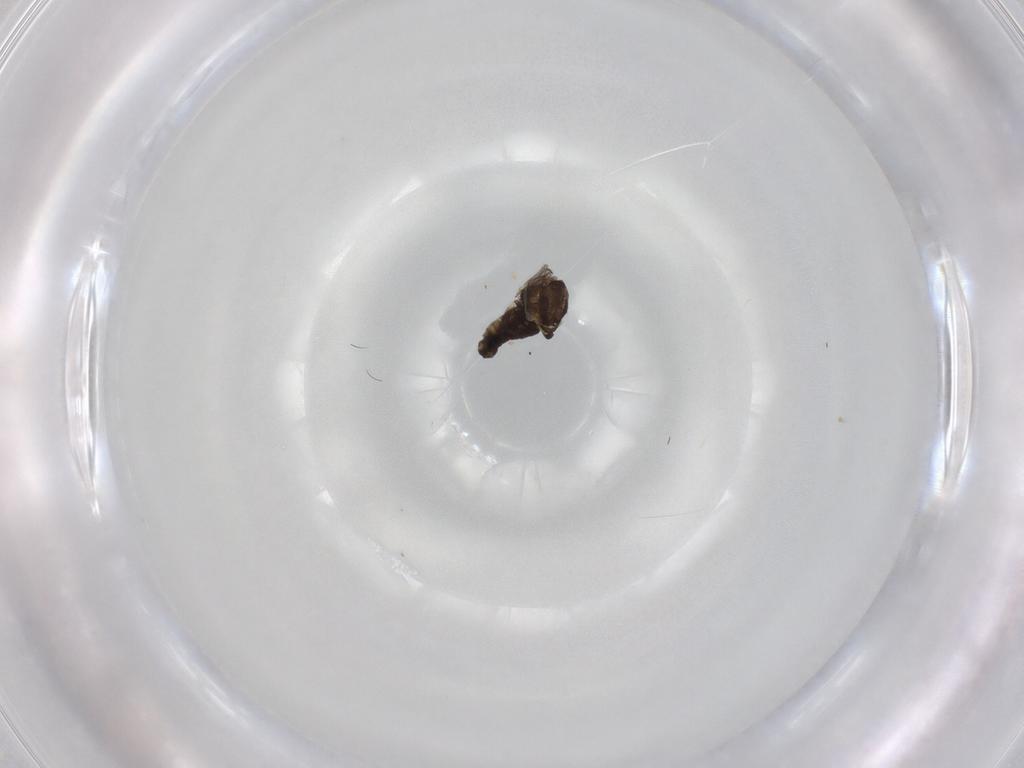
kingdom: Animalia
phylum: Arthropoda
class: Insecta
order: Diptera
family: Chironomidae
